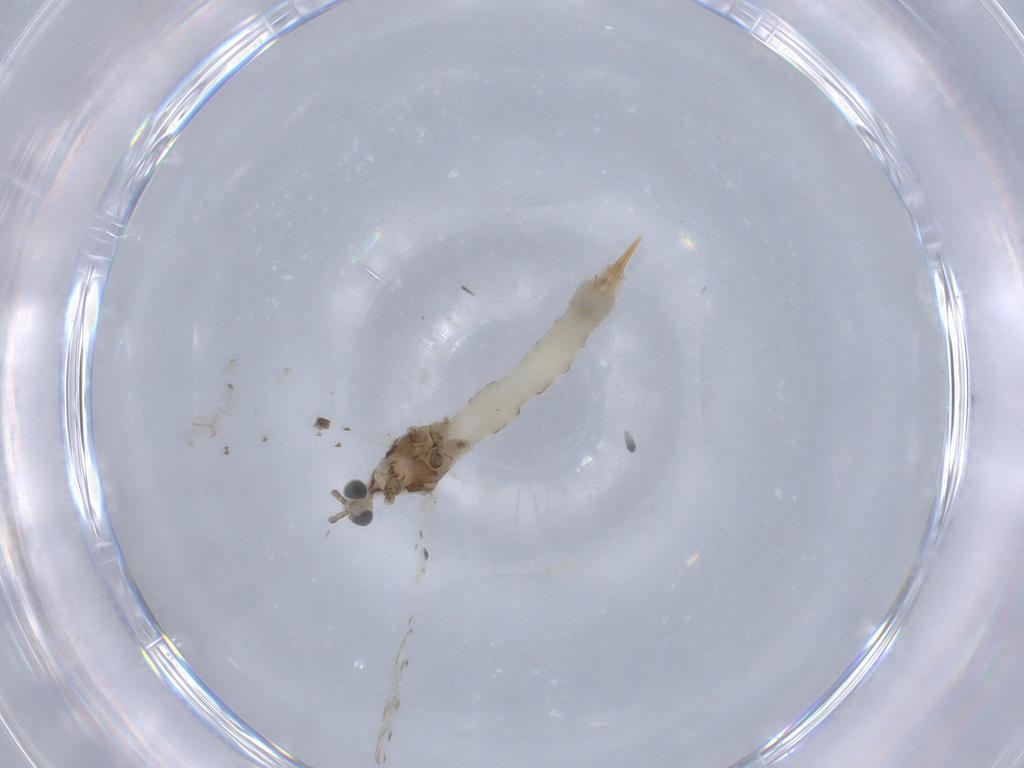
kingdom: Animalia
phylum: Arthropoda
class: Insecta
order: Diptera
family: Limoniidae
